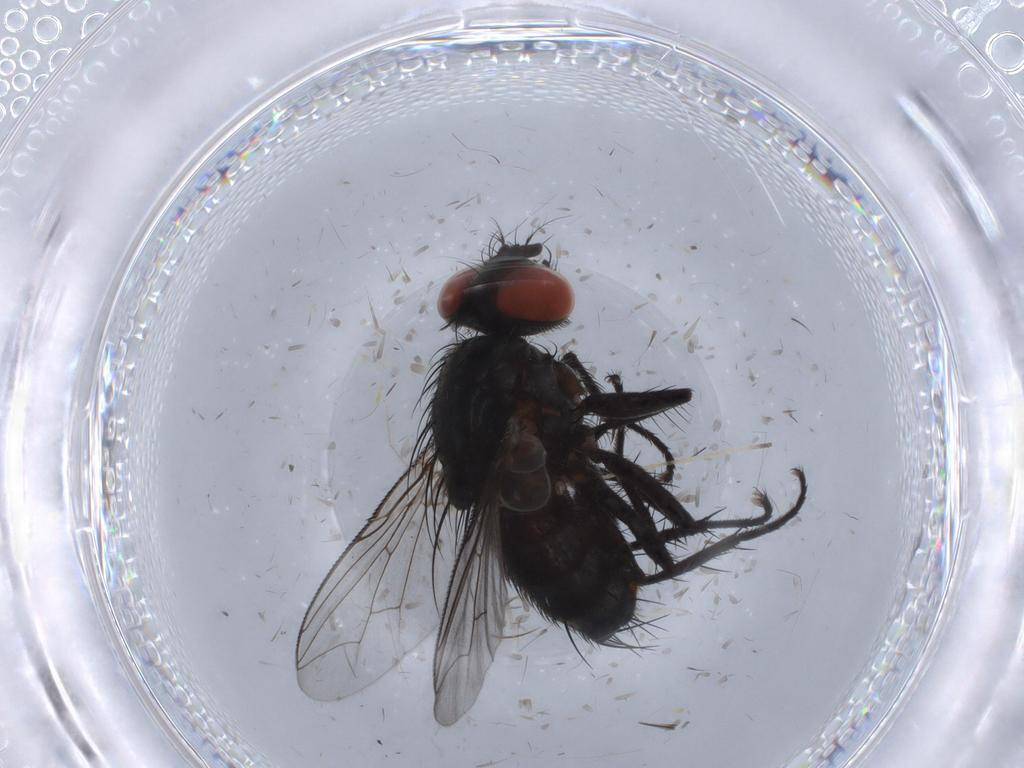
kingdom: Animalia
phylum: Arthropoda
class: Insecta
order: Diptera
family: Sarcophagidae
